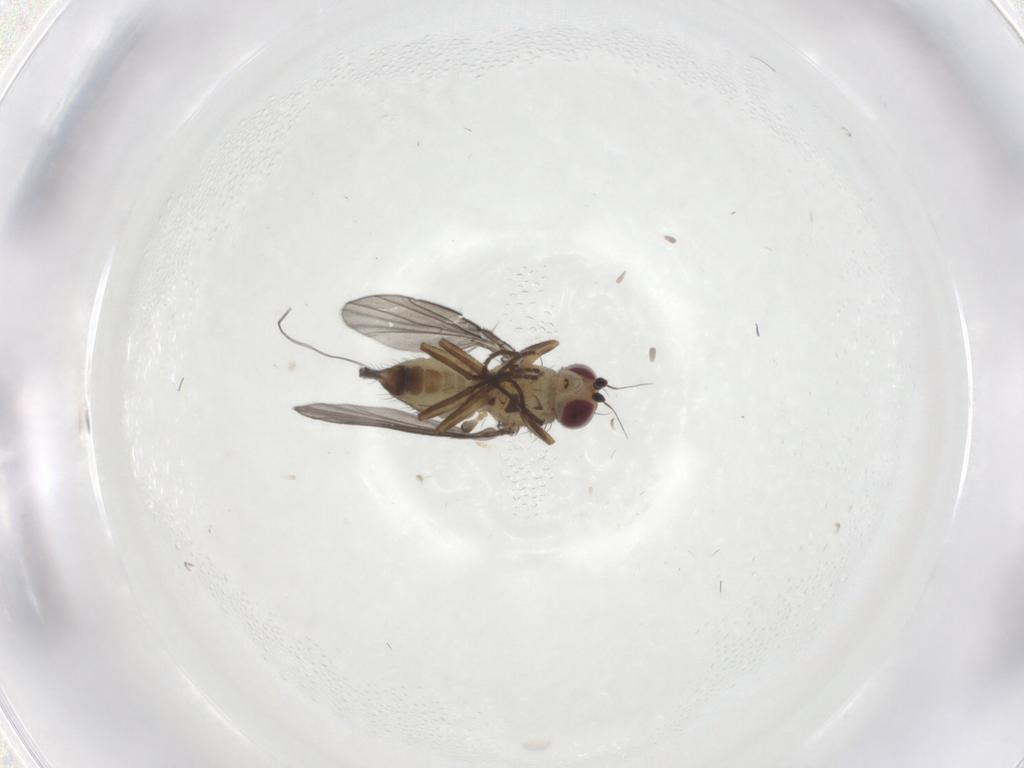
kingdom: Animalia
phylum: Arthropoda
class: Insecta
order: Diptera
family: Agromyzidae
